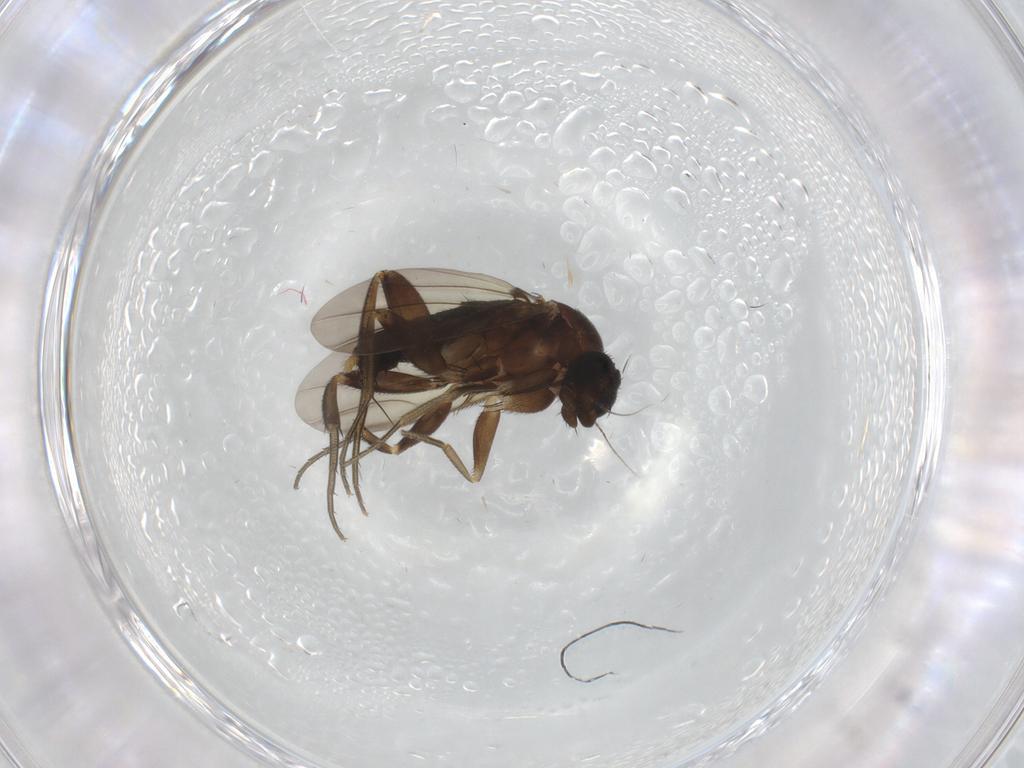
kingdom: Animalia
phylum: Arthropoda
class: Insecta
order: Diptera
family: Phoridae
